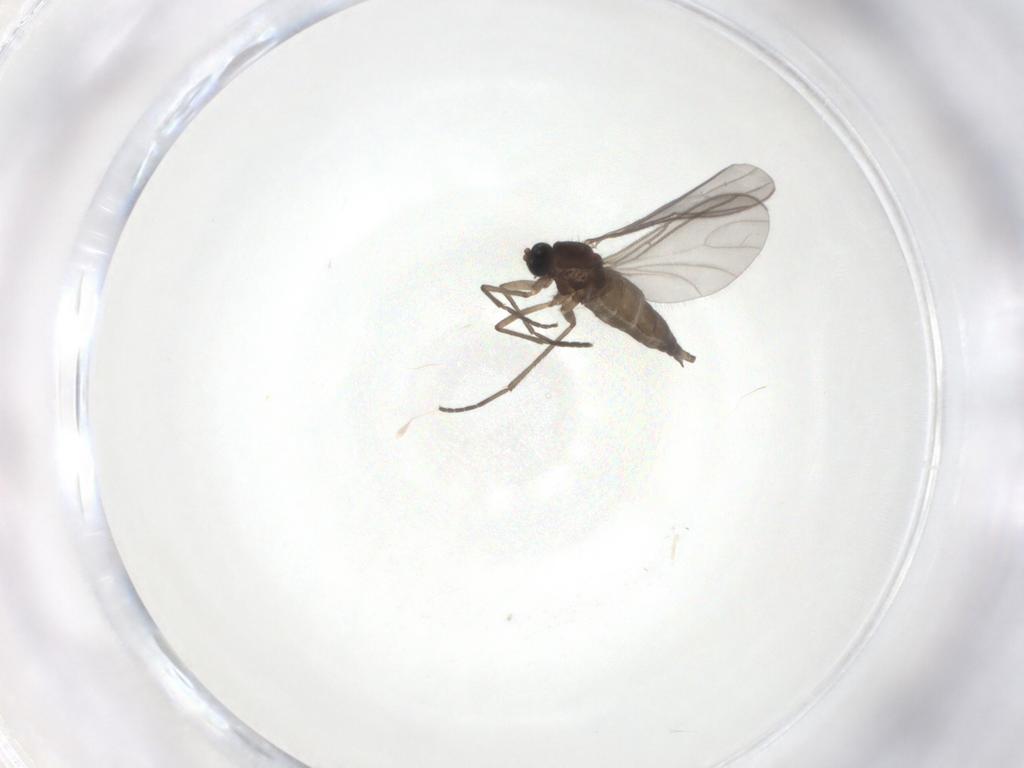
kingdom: Animalia
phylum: Arthropoda
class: Insecta
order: Diptera
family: Sciaridae
